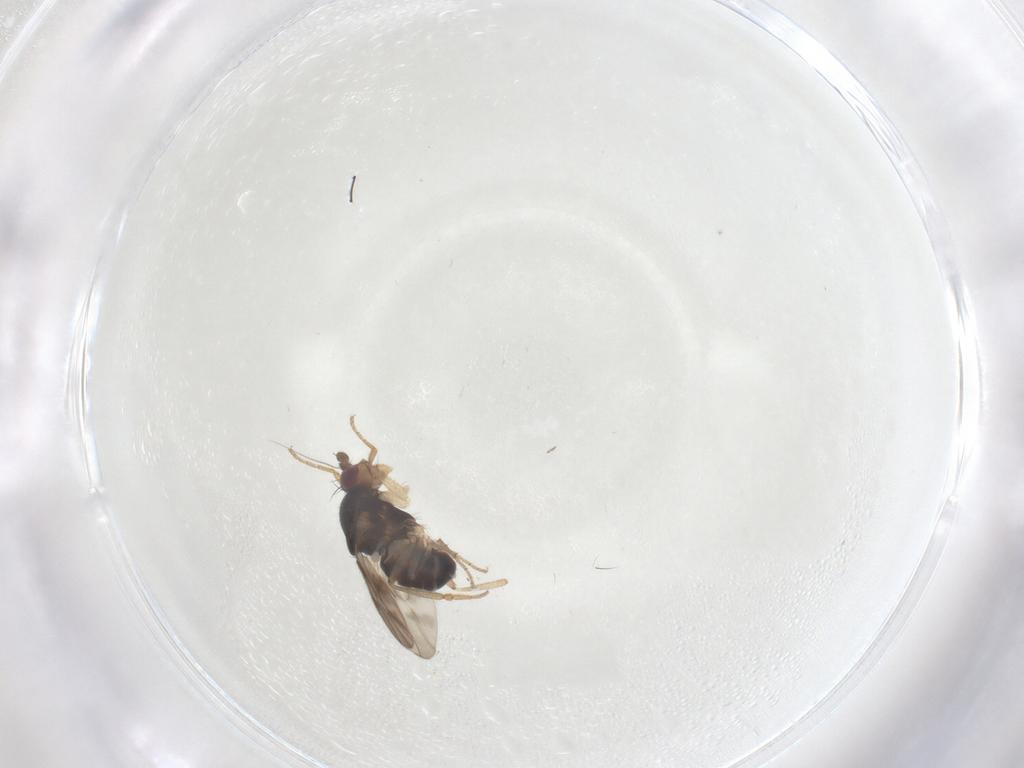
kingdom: Animalia
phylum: Arthropoda
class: Insecta
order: Diptera
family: Sphaeroceridae
